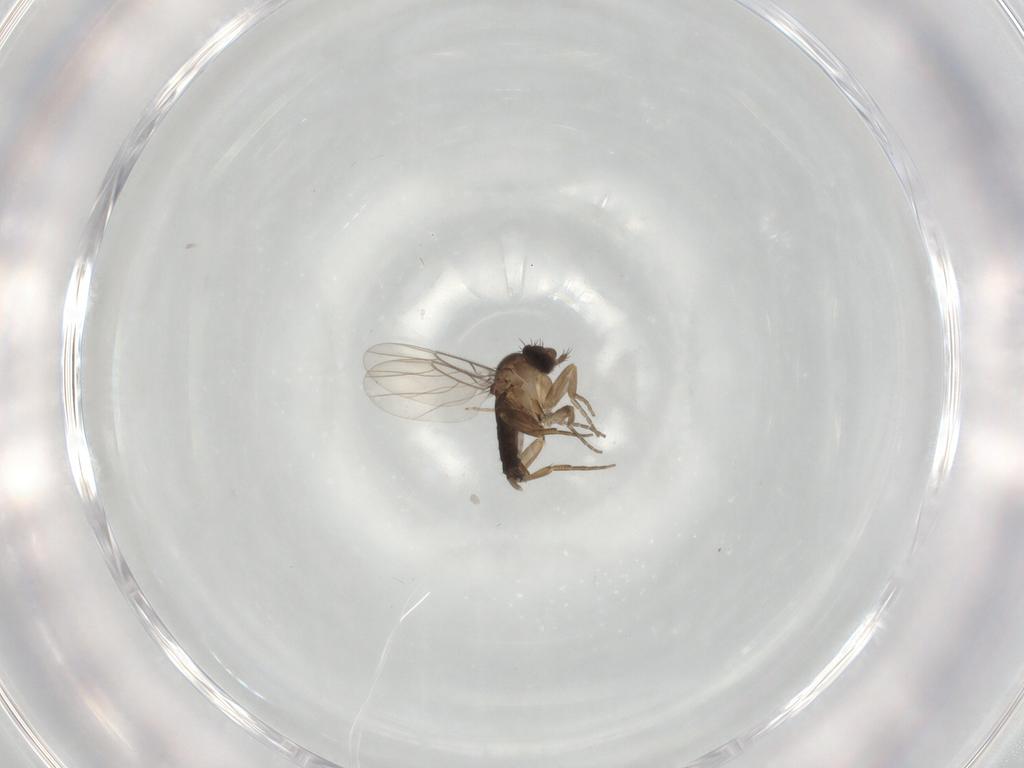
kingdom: Animalia
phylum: Arthropoda
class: Insecta
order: Diptera
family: Phoridae
